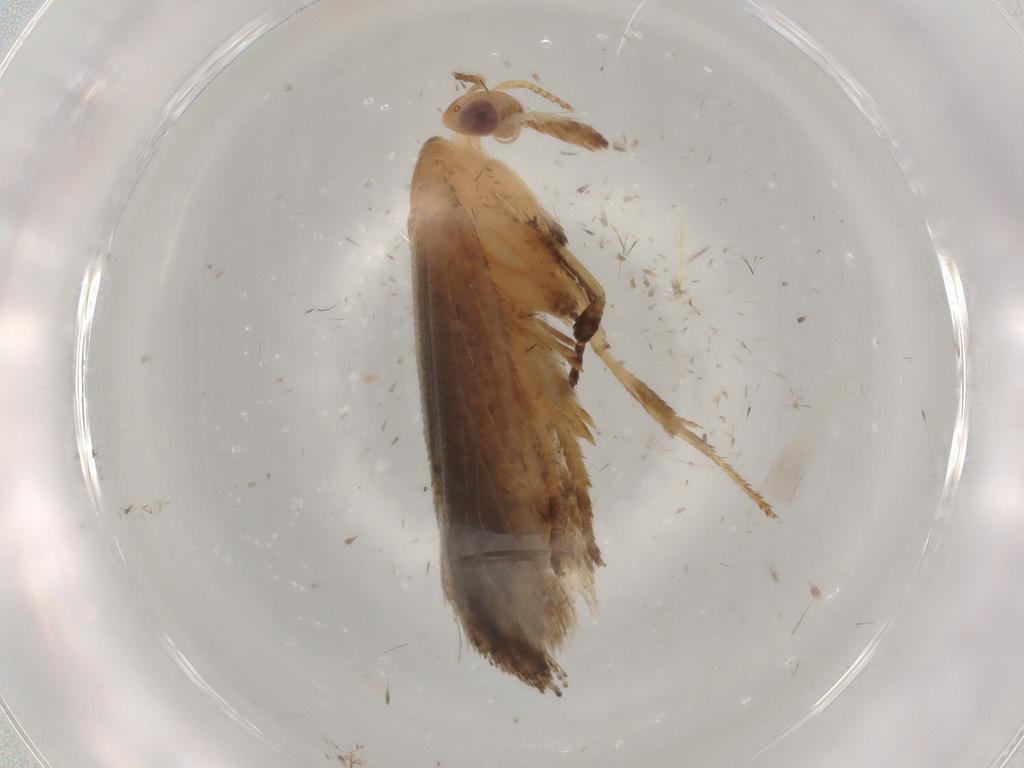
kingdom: Animalia
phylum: Arthropoda
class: Insecta
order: Lepidoptera
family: Ypsolophidae
